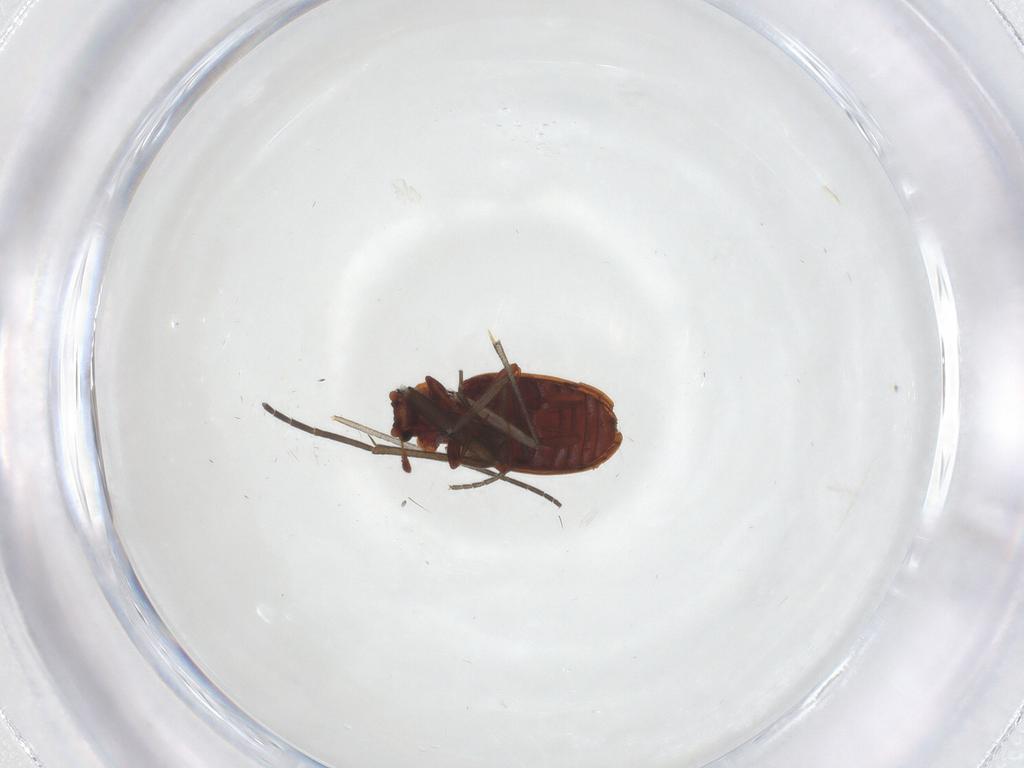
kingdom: Animalia
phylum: Arthropoda
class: Insecta
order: Coleoptera
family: Latridiidae
